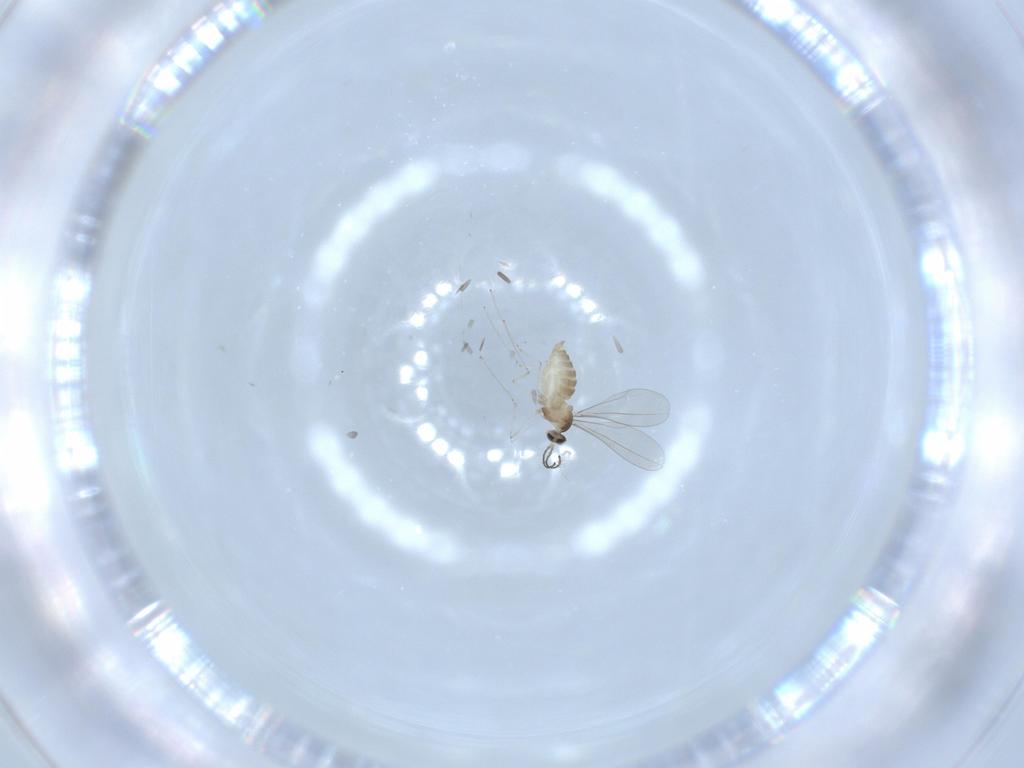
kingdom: Animalia
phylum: Arthropoda
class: Insecta
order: Diptera
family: Cecidomyiidae
